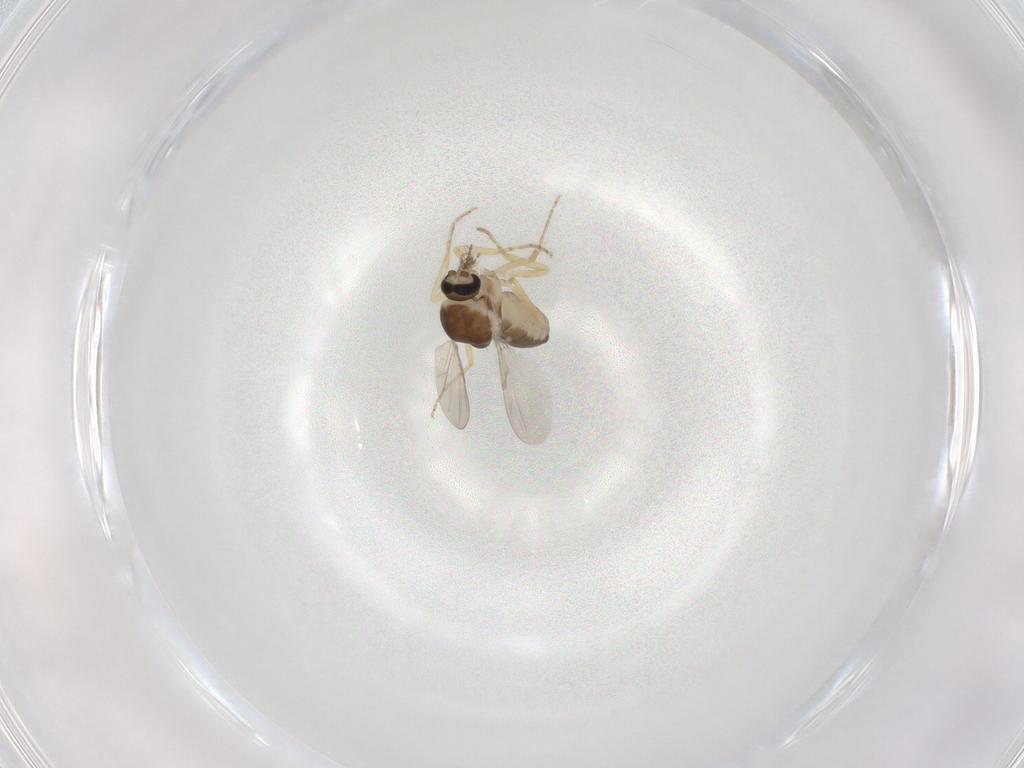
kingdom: Animalia
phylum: Arthropoda
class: Insecta
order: Diptera
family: Ceratopogonidae
